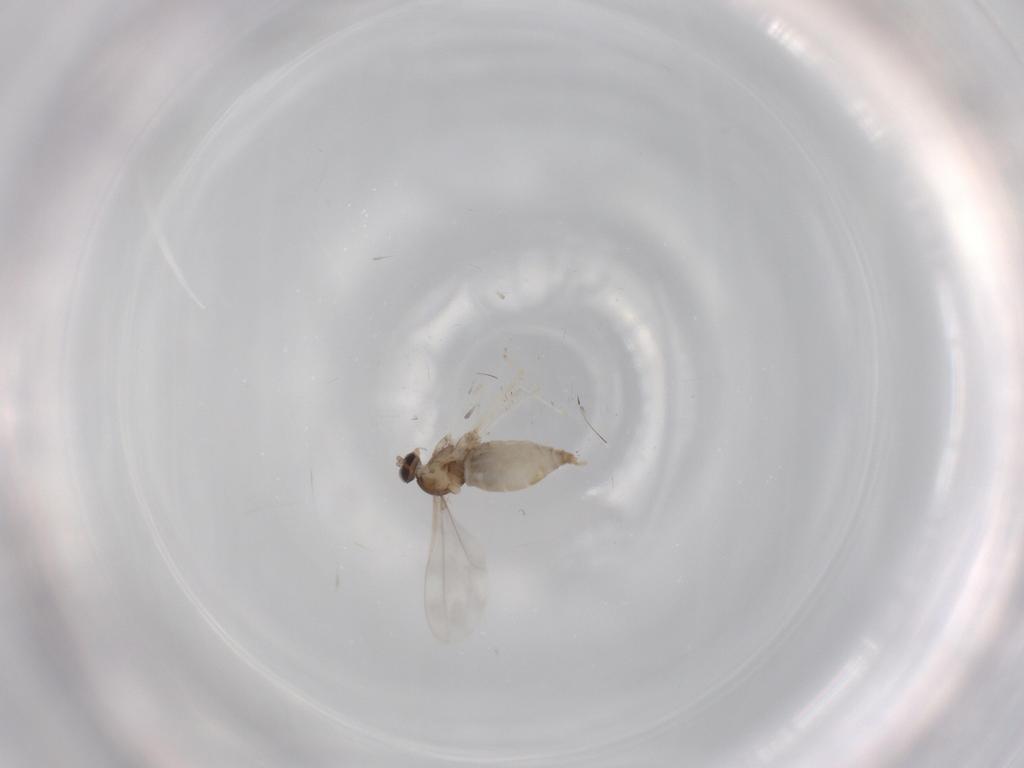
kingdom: Animalia
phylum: Arthropoda
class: Insecta
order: Diptera
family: Cecidomyiidae
